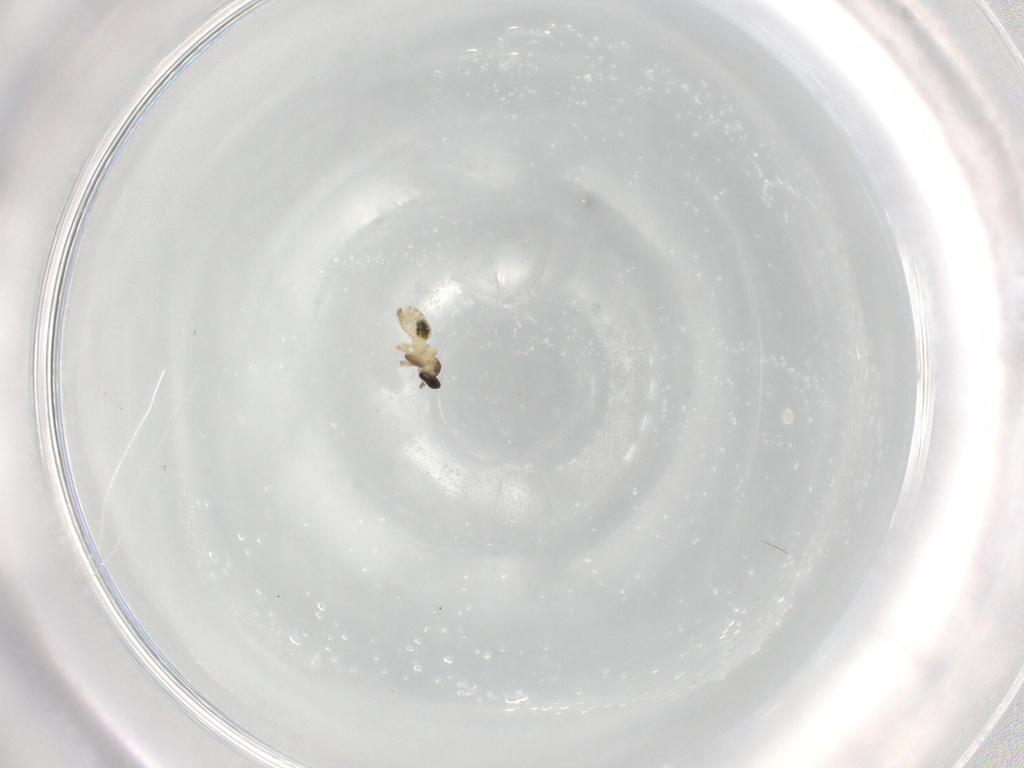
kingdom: Animalia
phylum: Arthropoda
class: Insecta
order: Diptera
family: Cecidomyiidae
